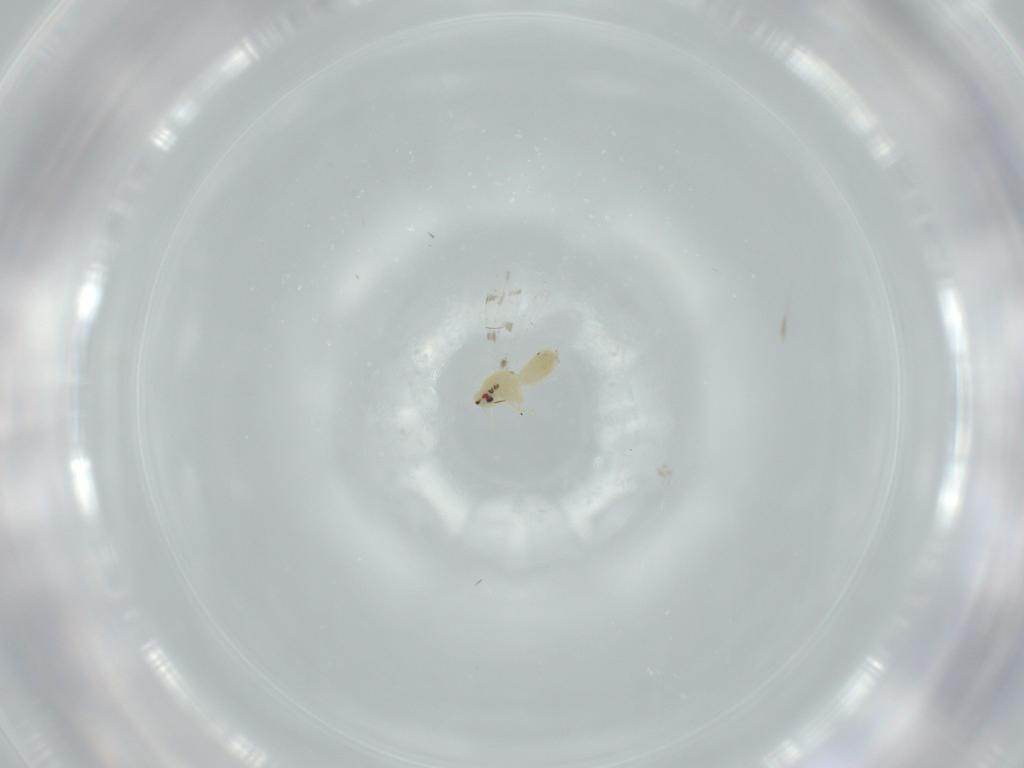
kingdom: Animalia
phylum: Arthropoda
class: Insecta
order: Hemiptera
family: Aleyrodidae
